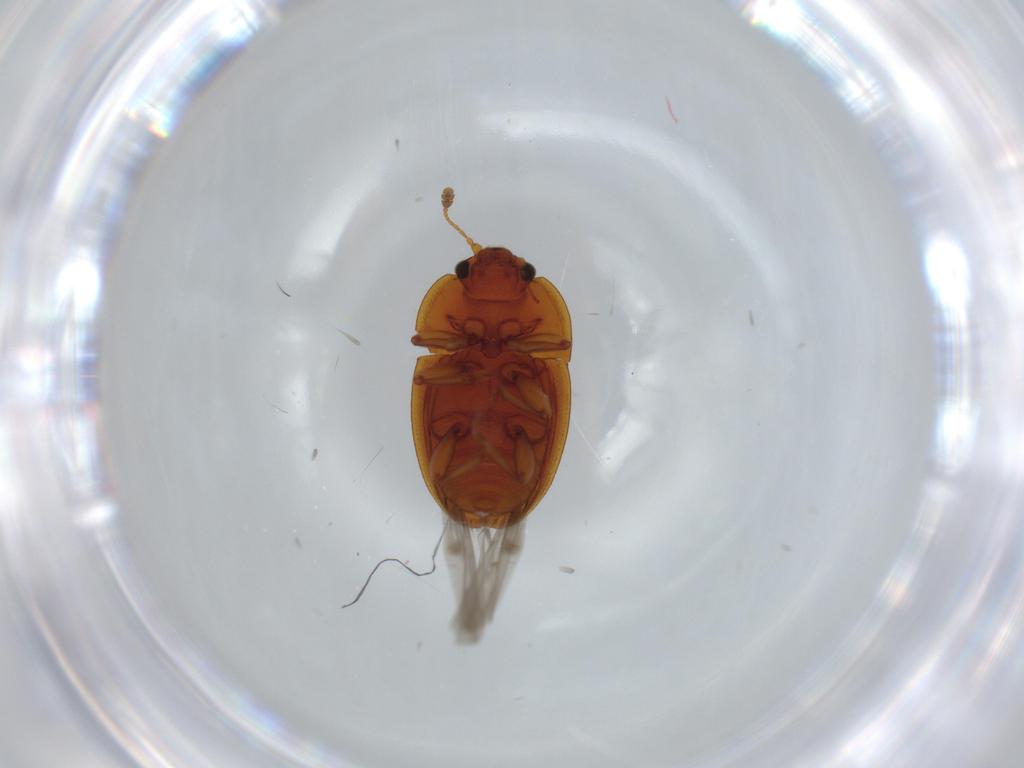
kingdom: Animalia
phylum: Arthropoda
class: Insecta
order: Coleoptera
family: Nitidulidae
